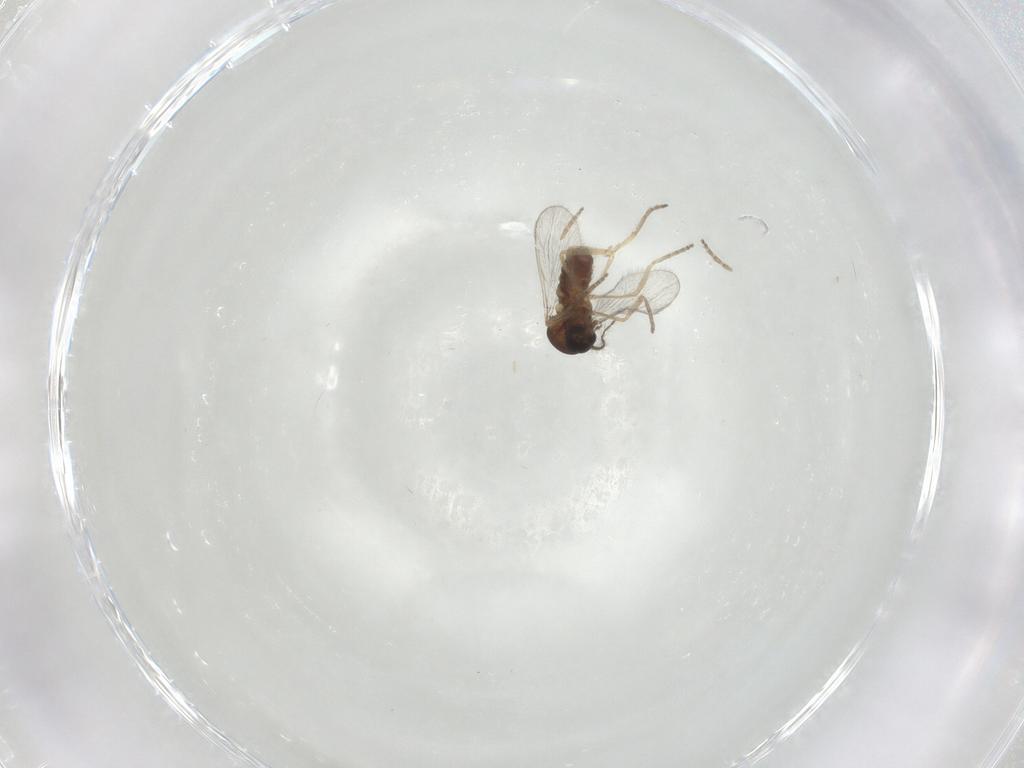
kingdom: Animalia
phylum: Arthropoda
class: Insecta
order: Diptera
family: Ceratopogonidae
